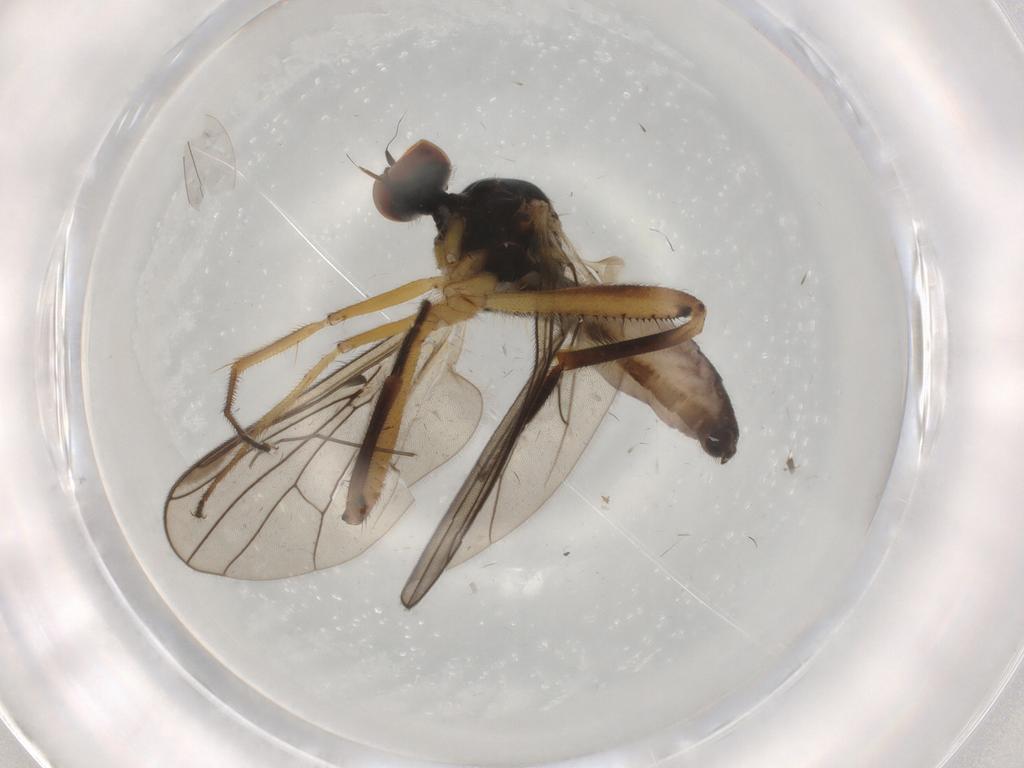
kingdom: Animalia
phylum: Arthropoda
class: Insecta
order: Diptera
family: Hybotidae
